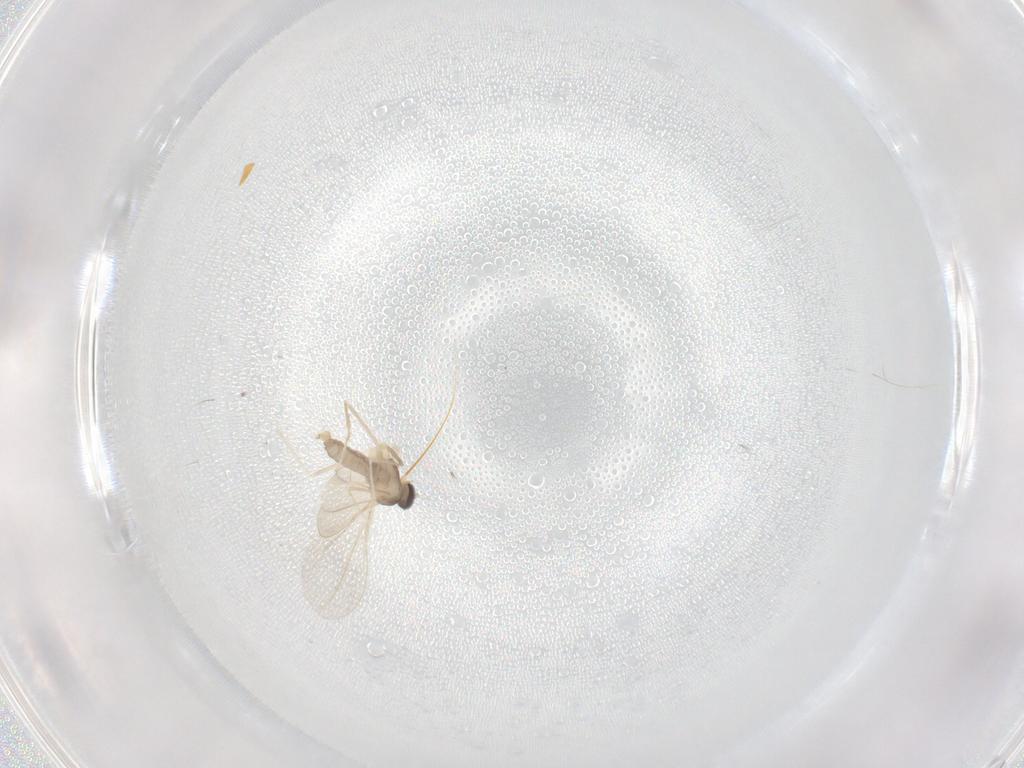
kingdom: Animalia
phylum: Arthropoda
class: Insecta
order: Diptera
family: Cecidomyiidae
